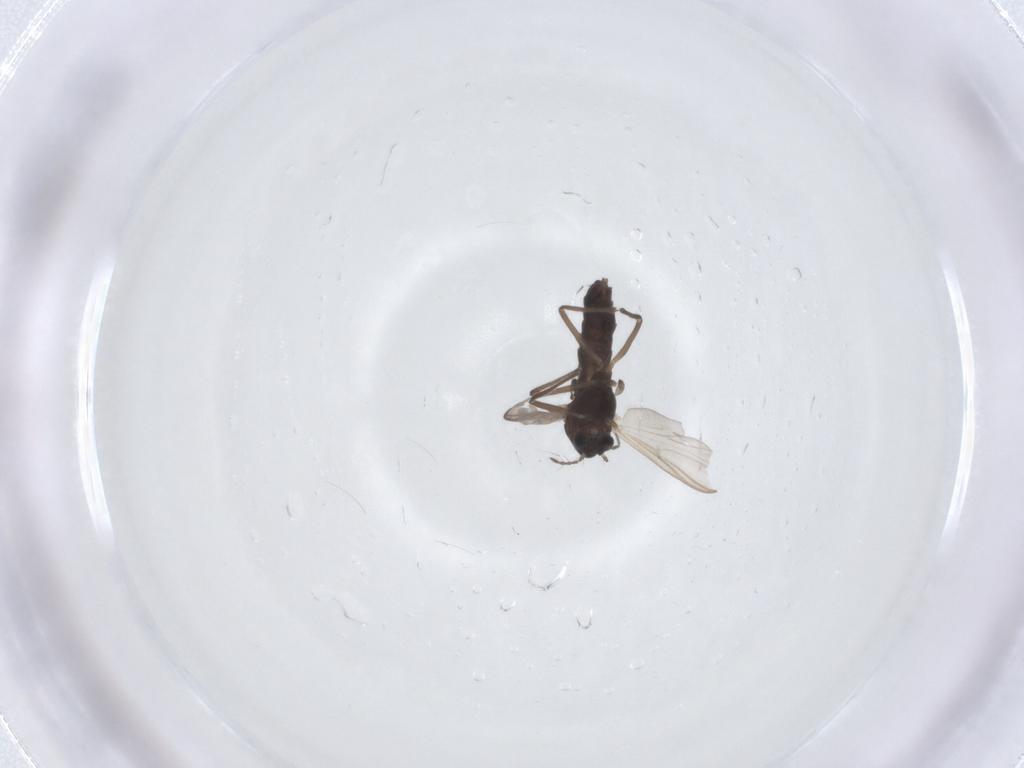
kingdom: Animalia
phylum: Arthropoda
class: Insecta
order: Diptera
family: Chironomidae
